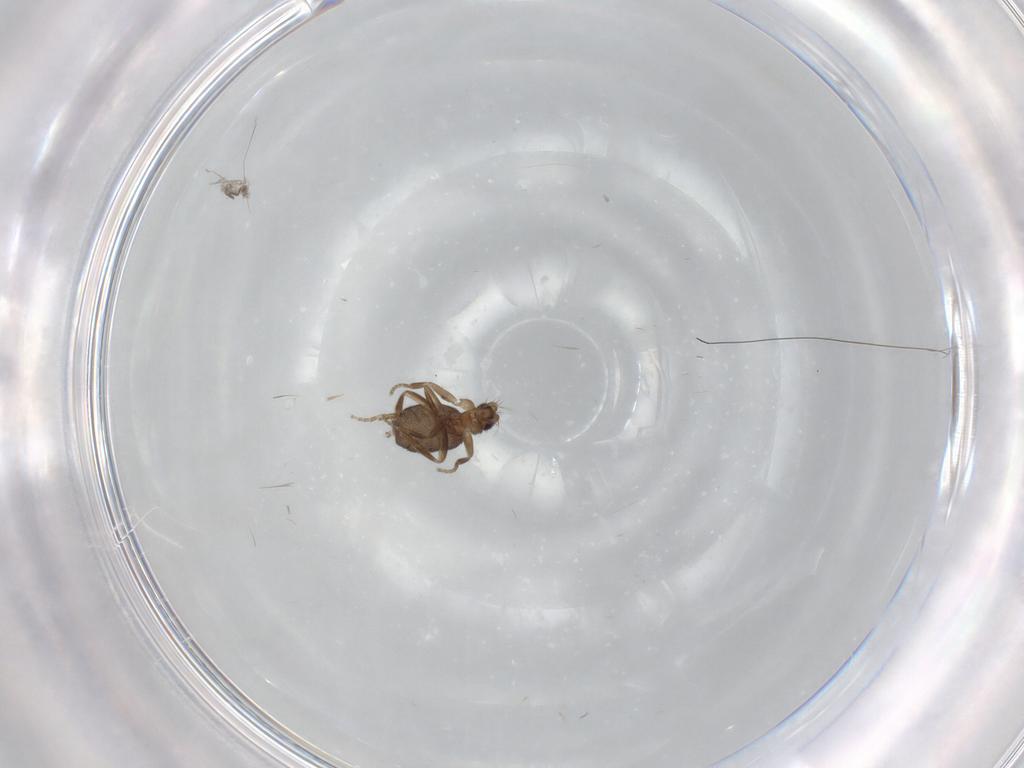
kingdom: Animalia
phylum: Arthropoda
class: Insecta
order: Diptera
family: Phoridae
